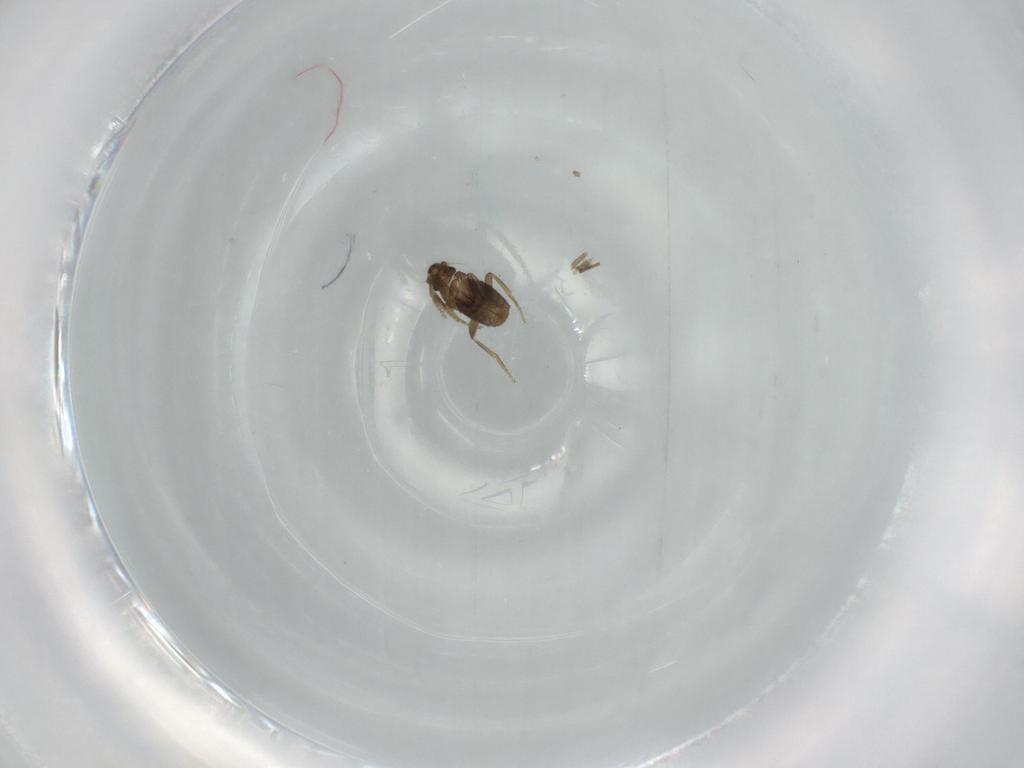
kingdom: Animalia
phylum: Arthropoda
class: Insecta
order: Diptera
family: Phoridae
